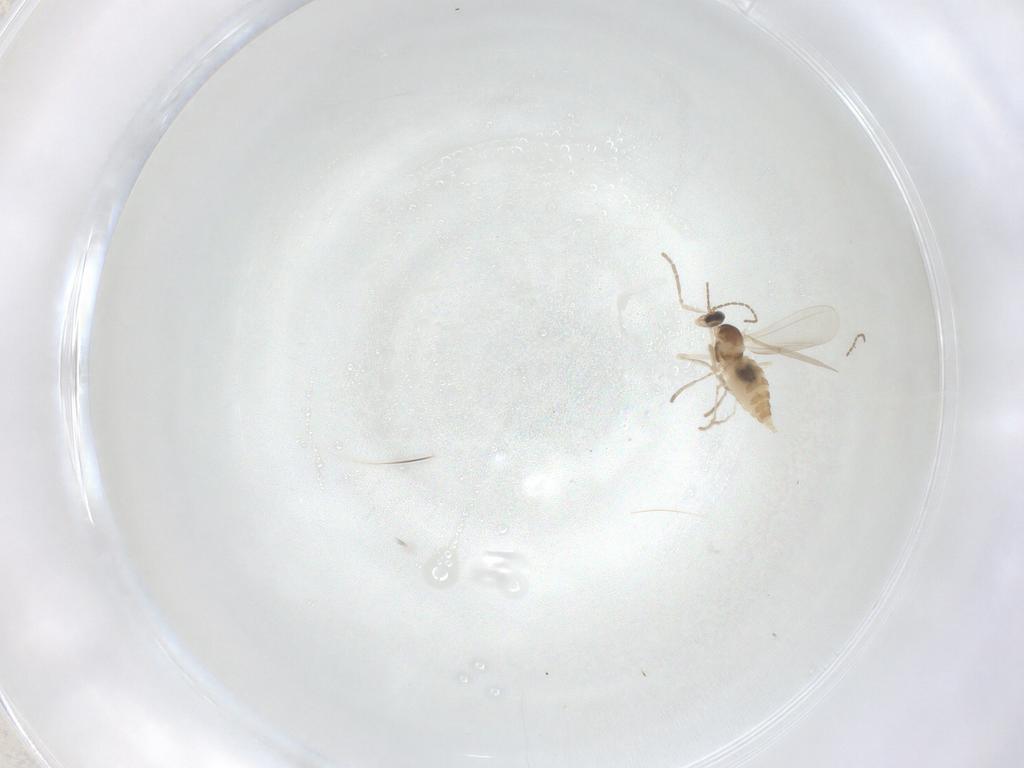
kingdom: Animalia
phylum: Arthropoda
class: Insecta
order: Diptera
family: Cecidomyiidae
